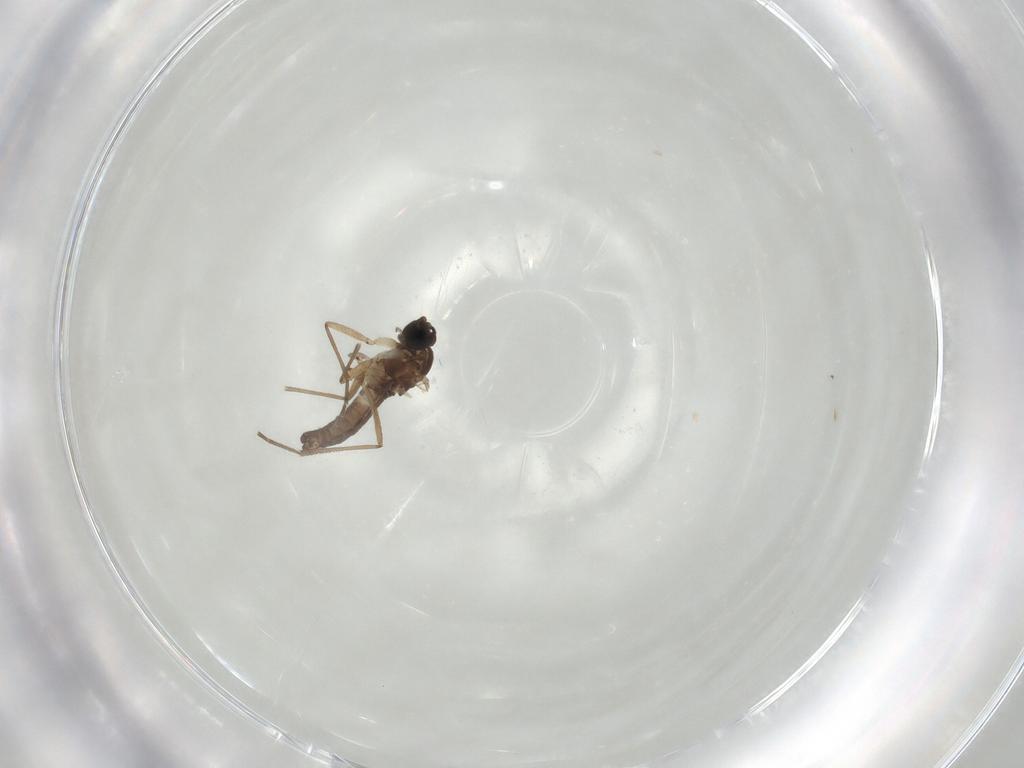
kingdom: Animalia
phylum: Arthropoda
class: Insecta
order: Diptera
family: Sciaridae
